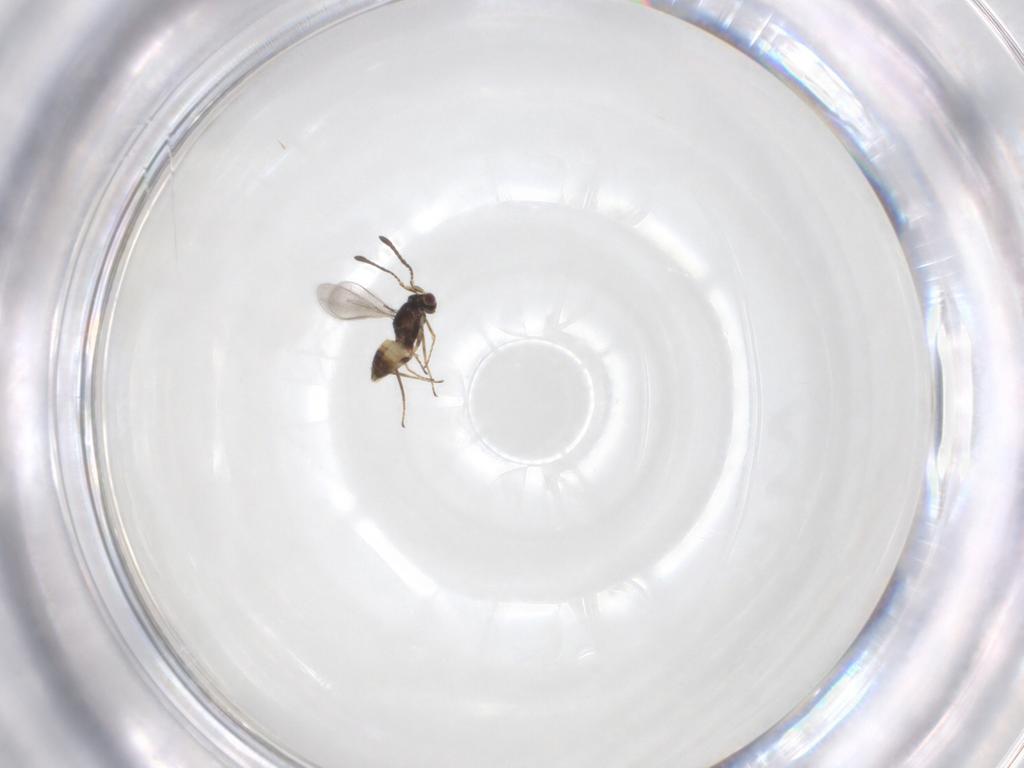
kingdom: Animalia
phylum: Arthropoda
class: Insecta
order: Hymenoptera
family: Mymaridae
